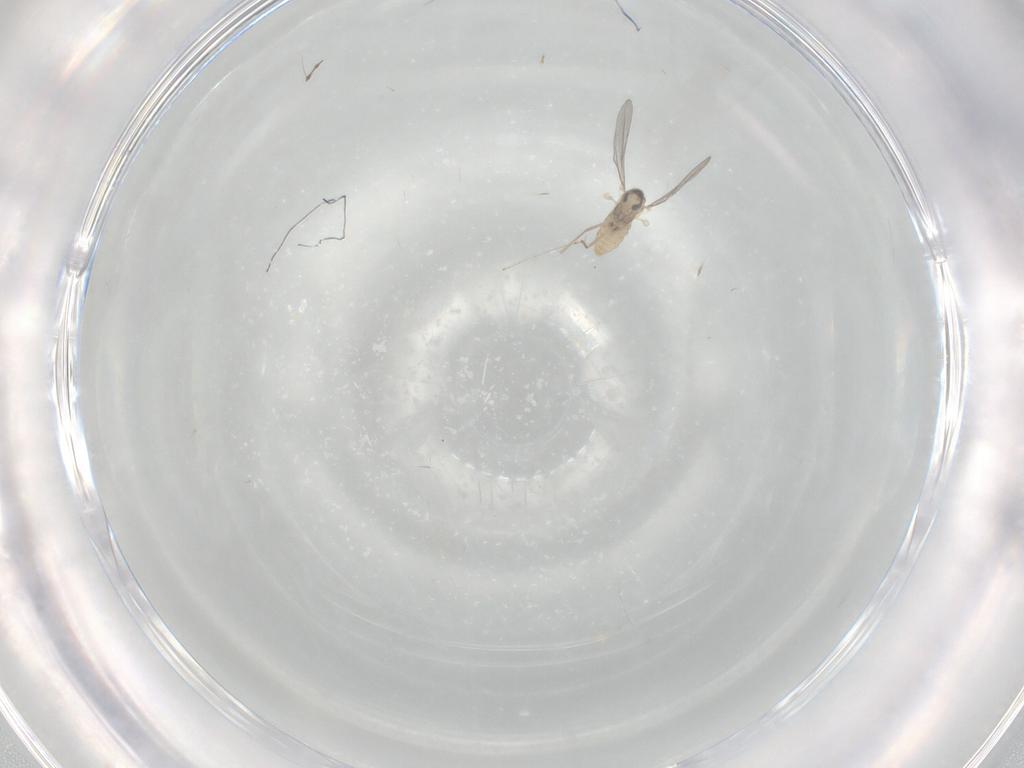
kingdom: Animalia
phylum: Arthropoda
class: Insecta
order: Diptera
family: Cecidomyiidae
